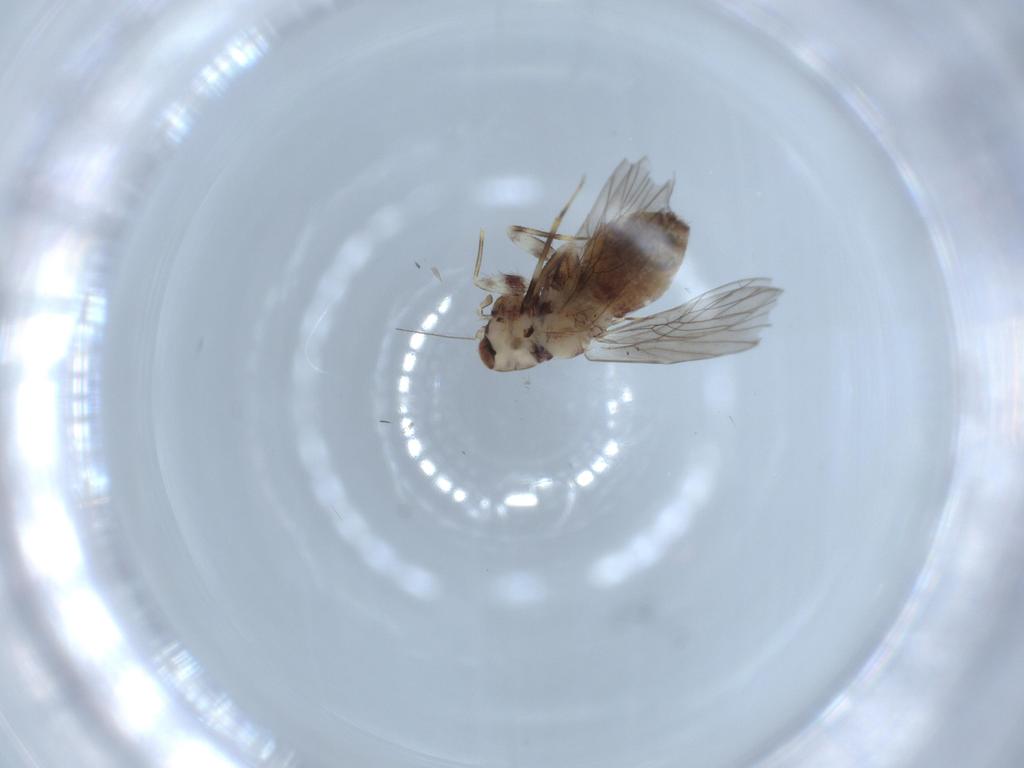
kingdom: Animalia
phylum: Arthropoda
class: Insecta
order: Psocodea
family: Lepidopsocidae
